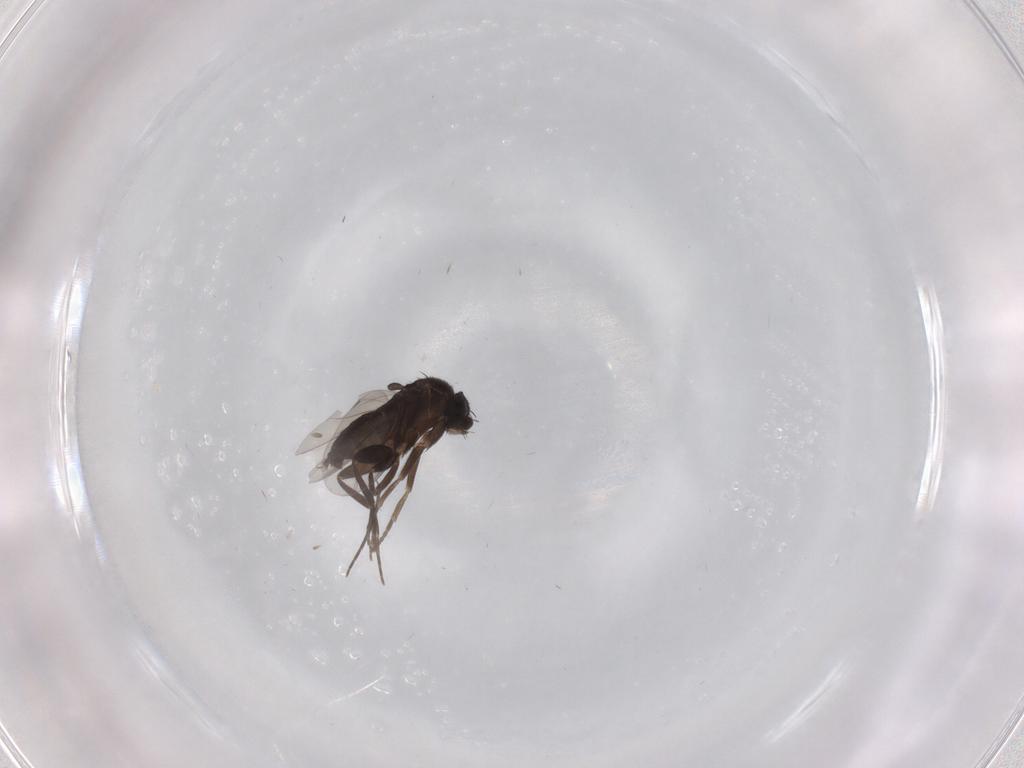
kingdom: Animalia
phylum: Arthropoda
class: Insecta
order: Diptera
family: Phoridae
